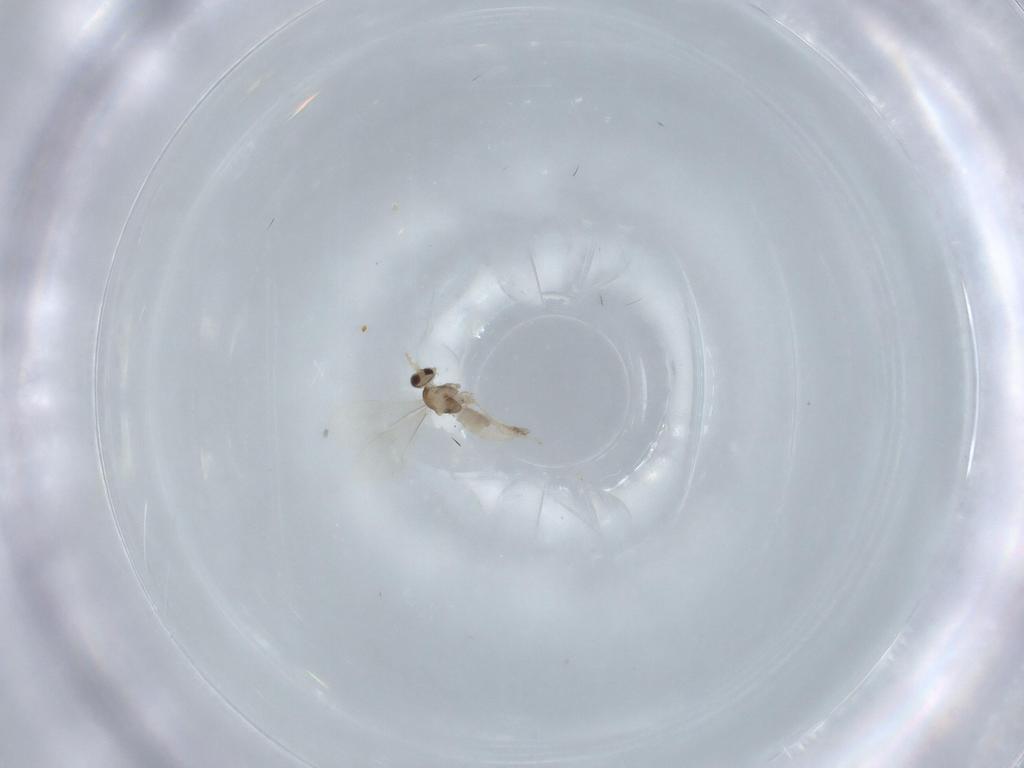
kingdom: Animalia
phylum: Arthropoda
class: Insecta
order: Diptera
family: Cecidomyiidae
